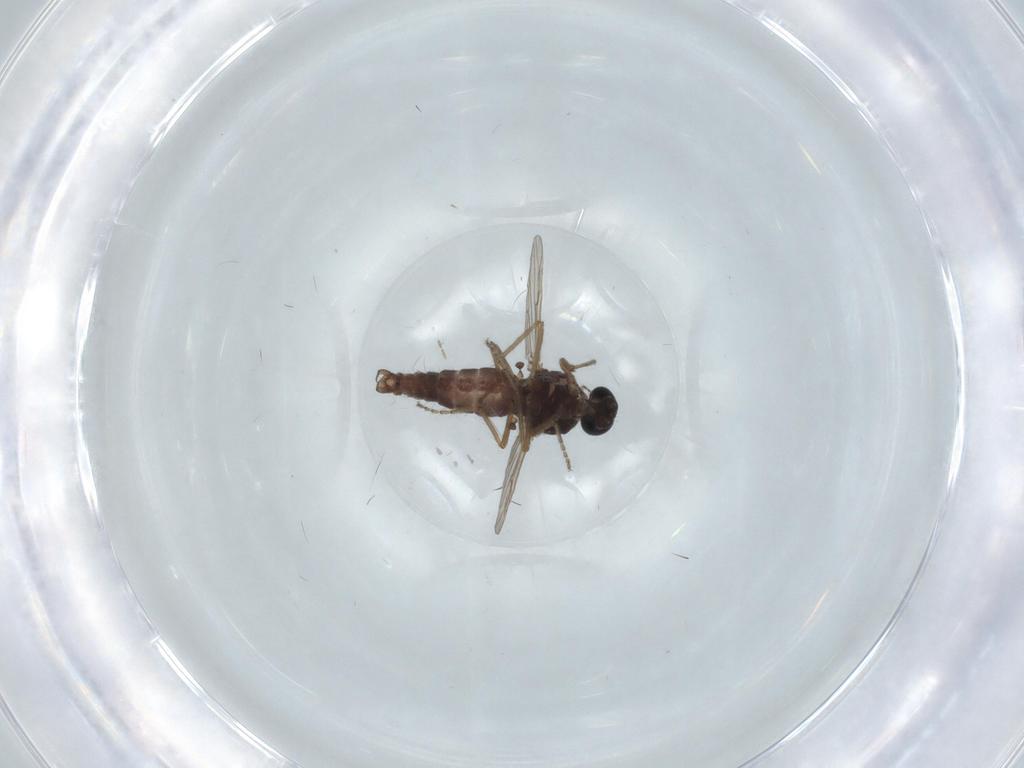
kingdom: Animalia
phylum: Arthropoda
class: Insecta
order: Diptera
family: Ceratopogonidae
